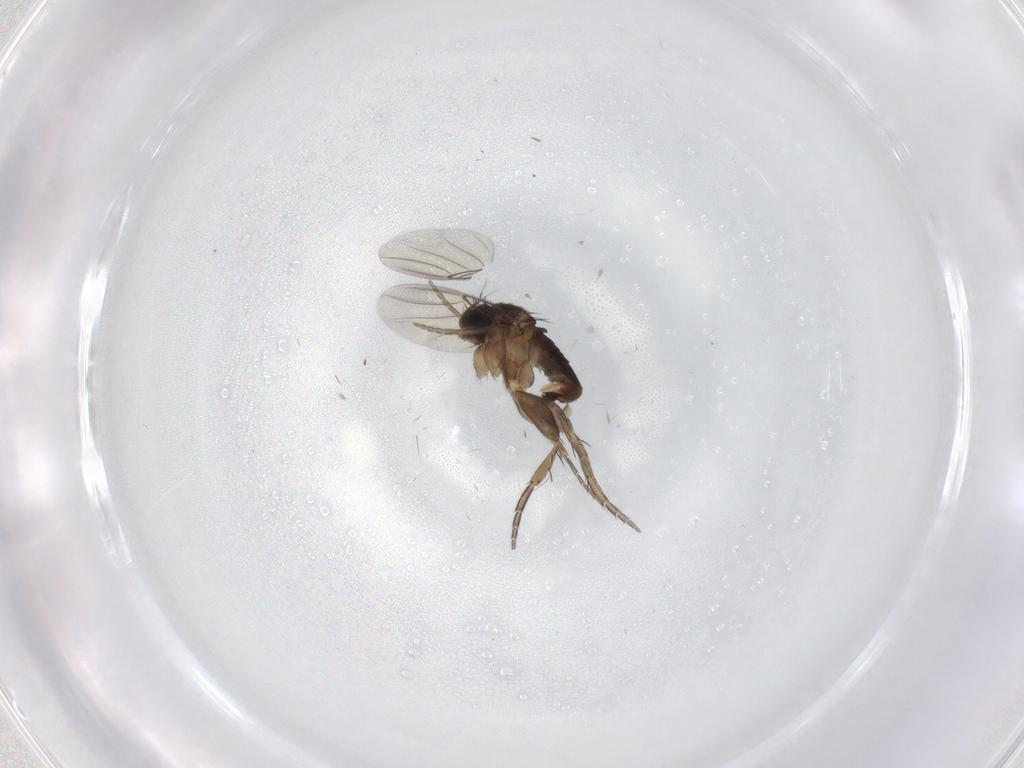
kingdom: Animalia
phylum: Arthropoda
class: Insecta
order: Diptera
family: Phoridae
